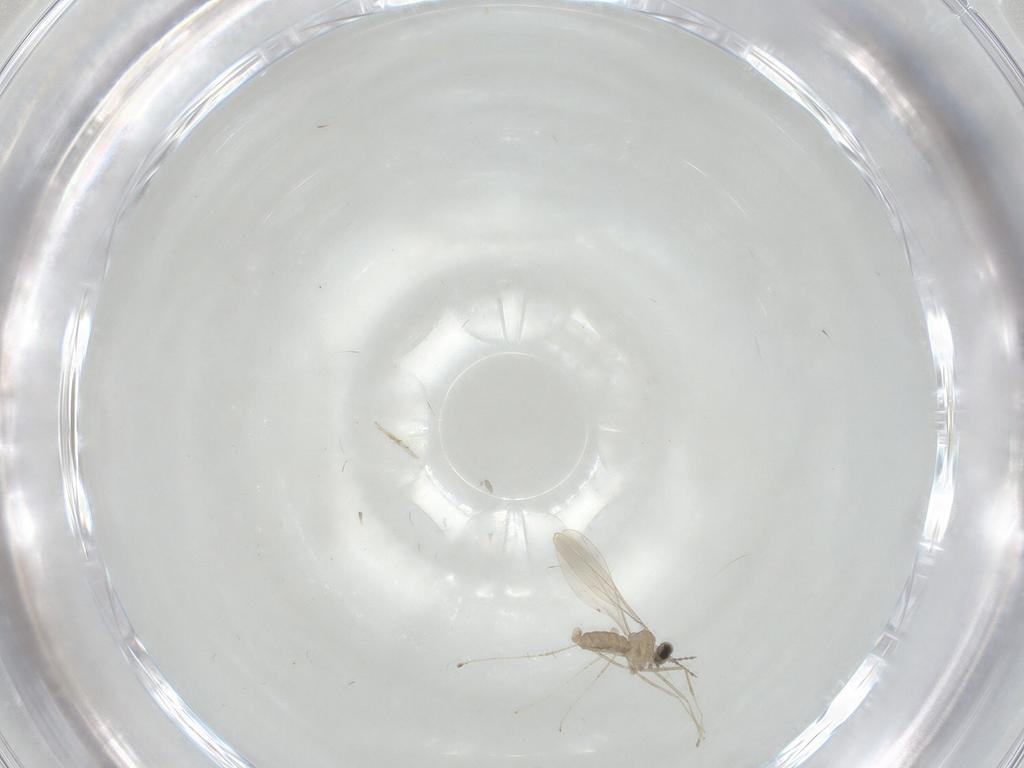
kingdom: Animalia
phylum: Arthropoda
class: Insecta
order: Diptera
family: Cecidomyiidae
